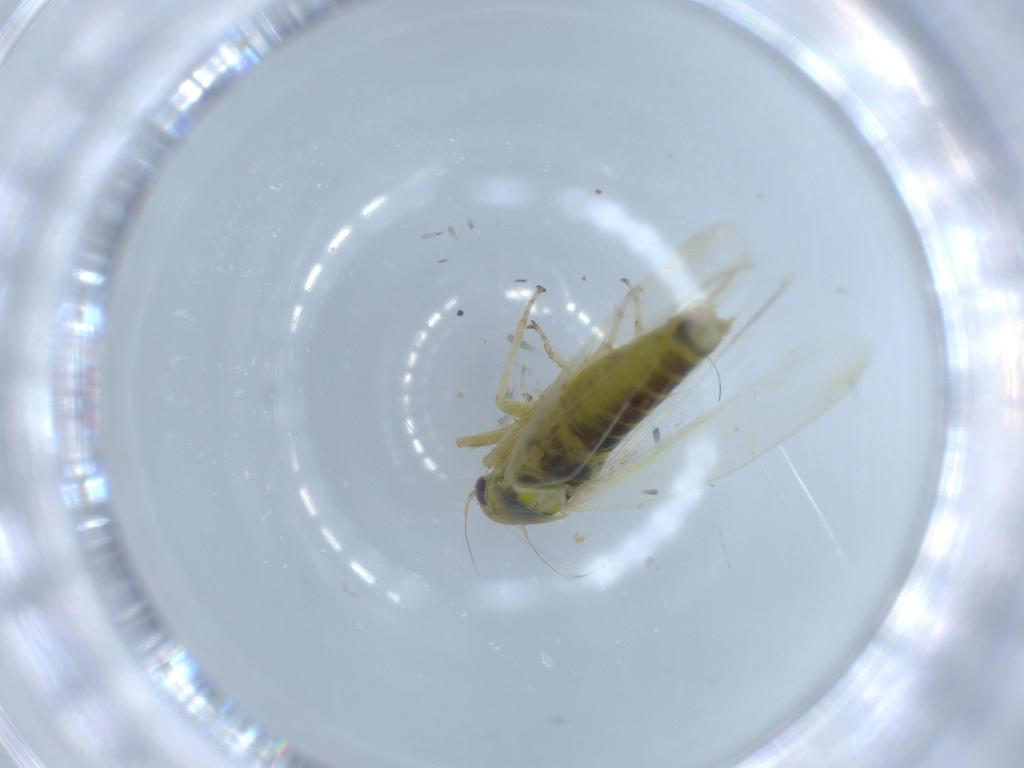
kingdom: Animalia
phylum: Arthropoda
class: Insecta
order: Hemiptera
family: Cicadellidae
